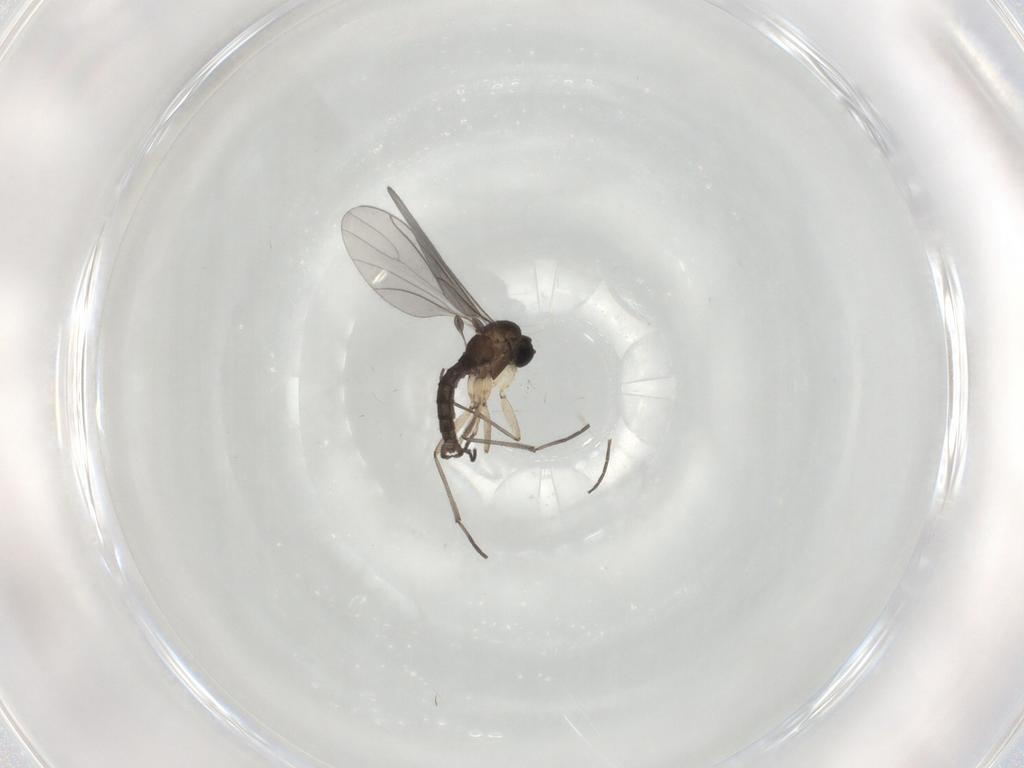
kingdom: Animalia
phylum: Arthropoda
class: Insecta
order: Diptera
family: Sciaridae
